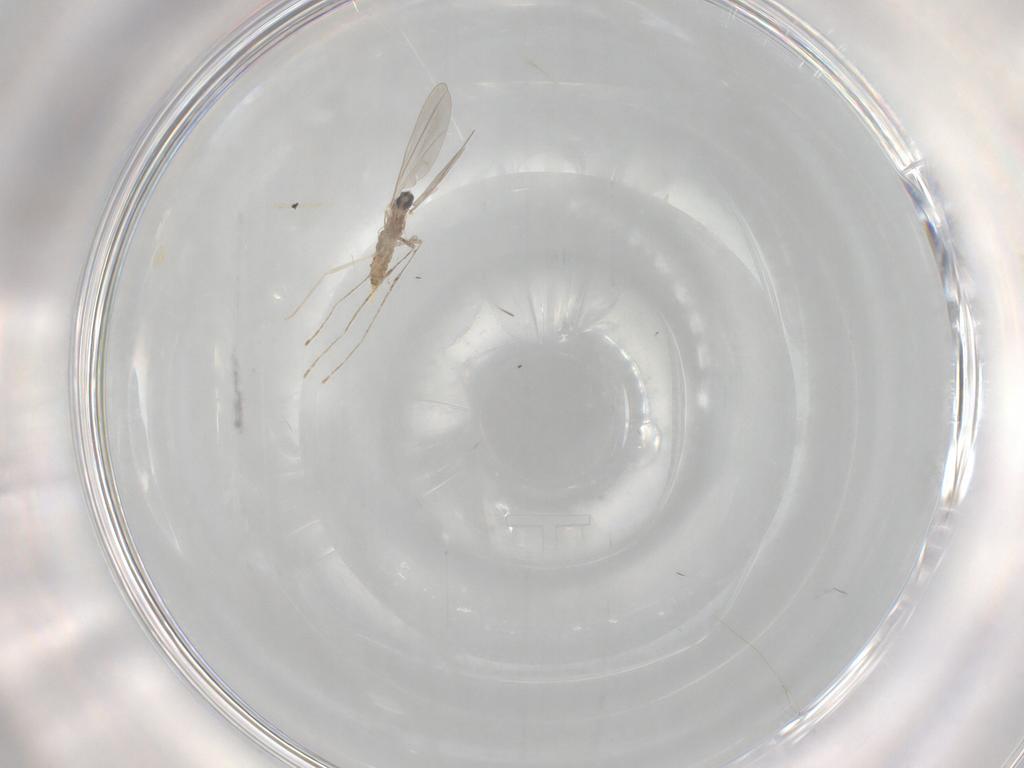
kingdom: Animalia
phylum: Arthropoda
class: Insecta
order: Diptera
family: Cecidomyiidae
